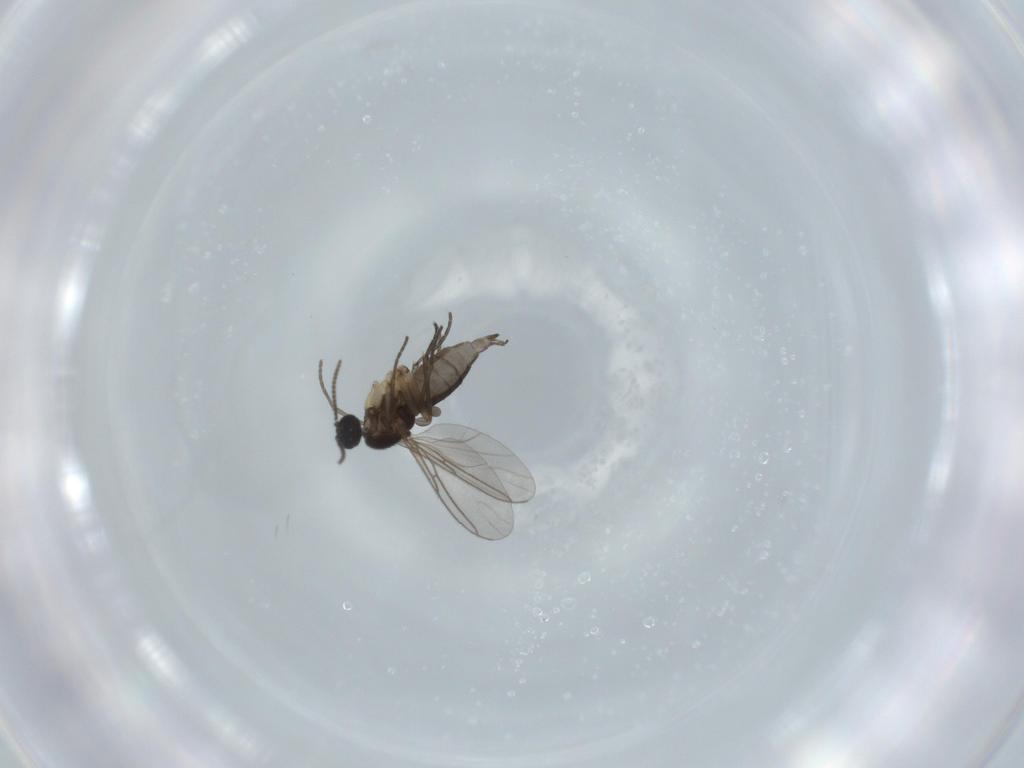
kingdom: Animalia
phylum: Arthropoda
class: Insecta
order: Diptera
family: Sciaridae
